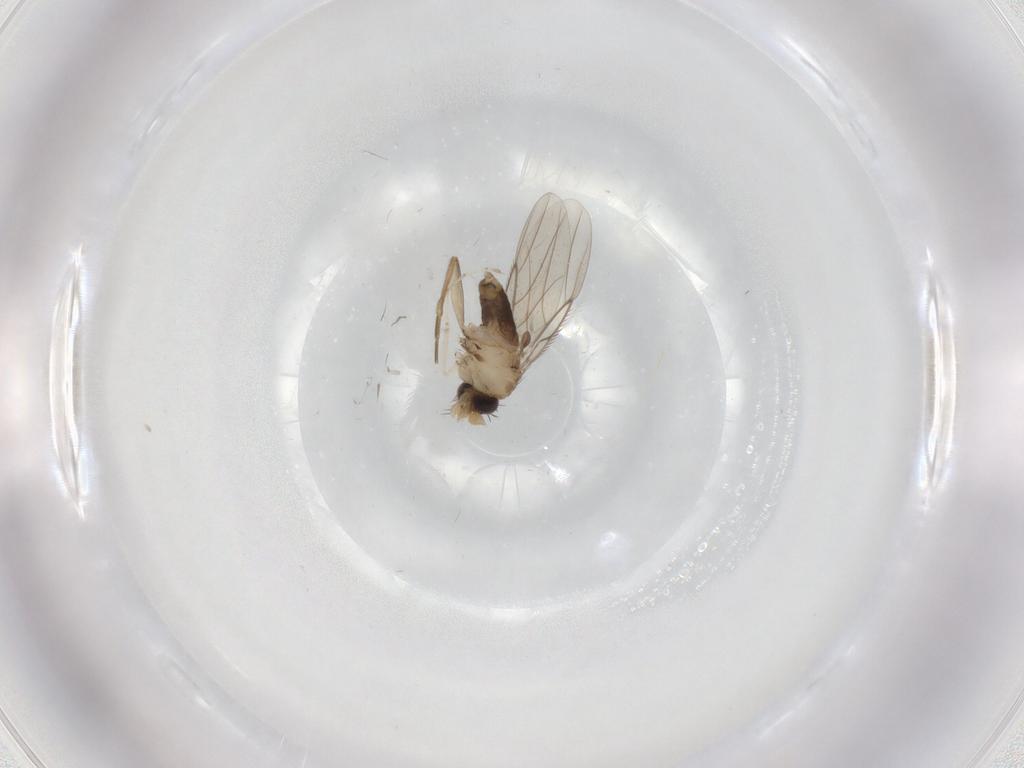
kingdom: Animalia
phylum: Arthropoda
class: Insecta
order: Diptera
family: Phoridae
